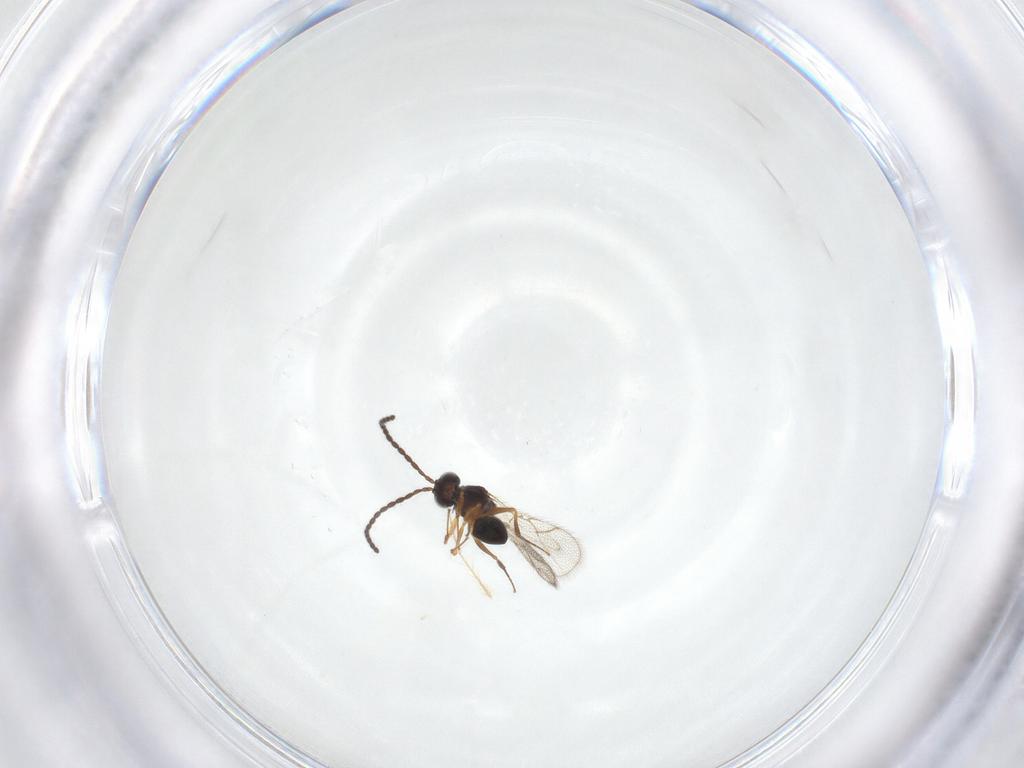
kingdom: Animalia
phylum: Arthropoda
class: Insecta
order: Hymenoptera
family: Figitidae
